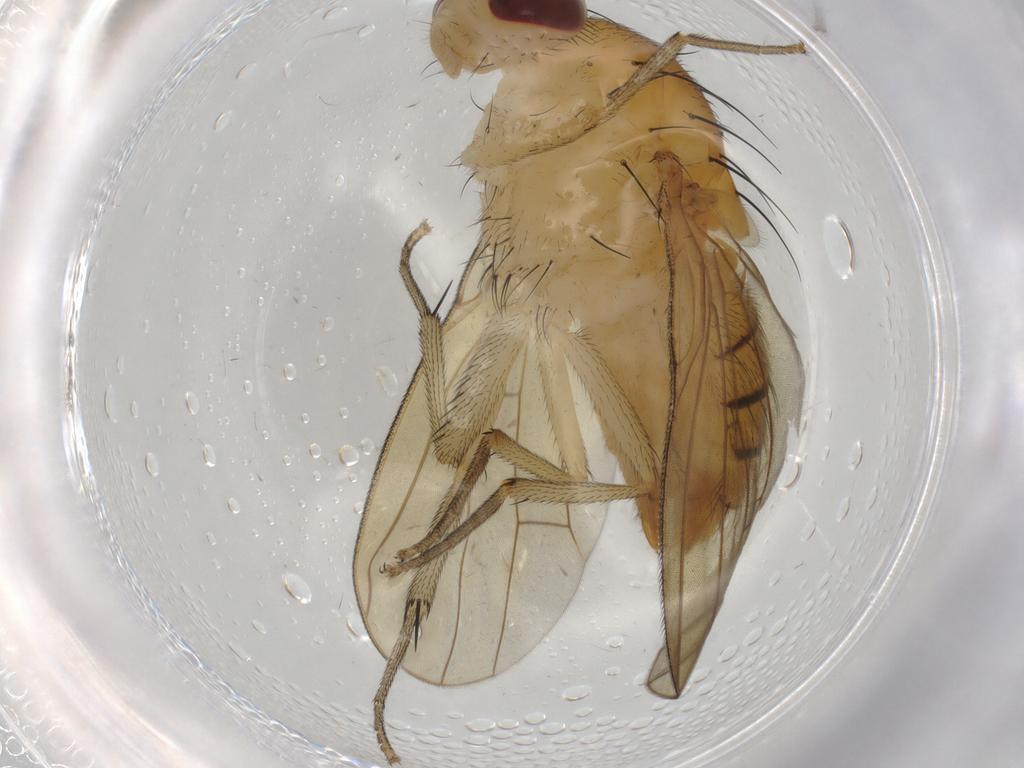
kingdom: Animalia
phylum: Arthropoda
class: Insecta
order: Diptera
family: Cecidomyiidae
